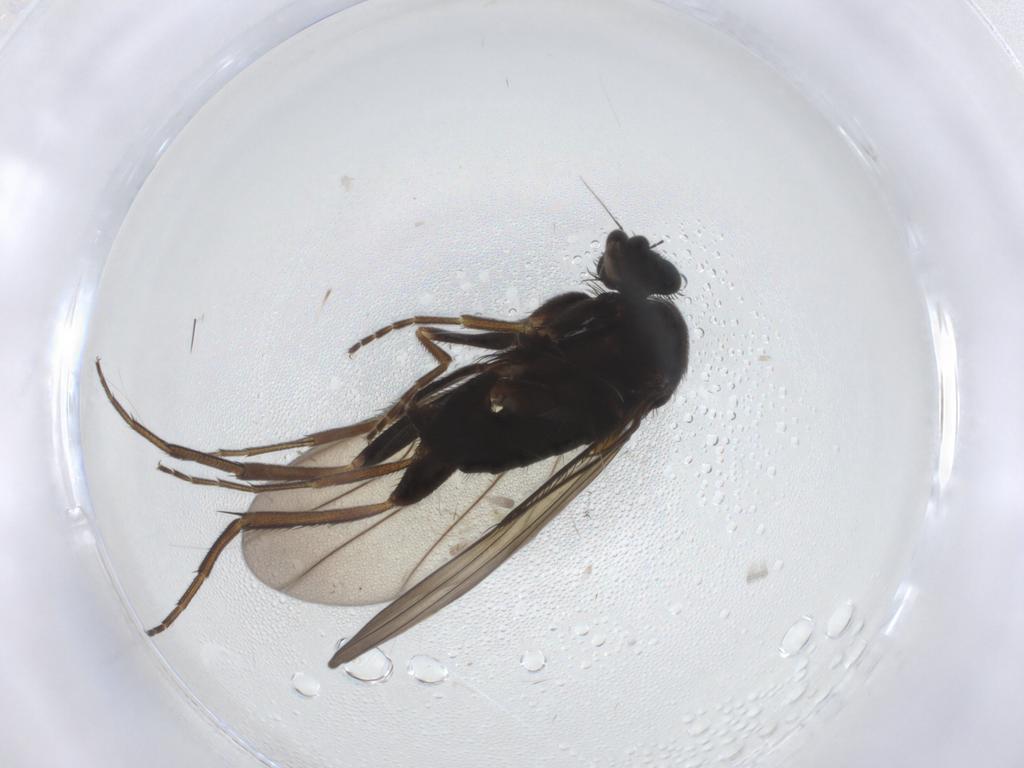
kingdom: Animalia
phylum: Arthropoda
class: Insecta
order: Diptera
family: Phoridae
